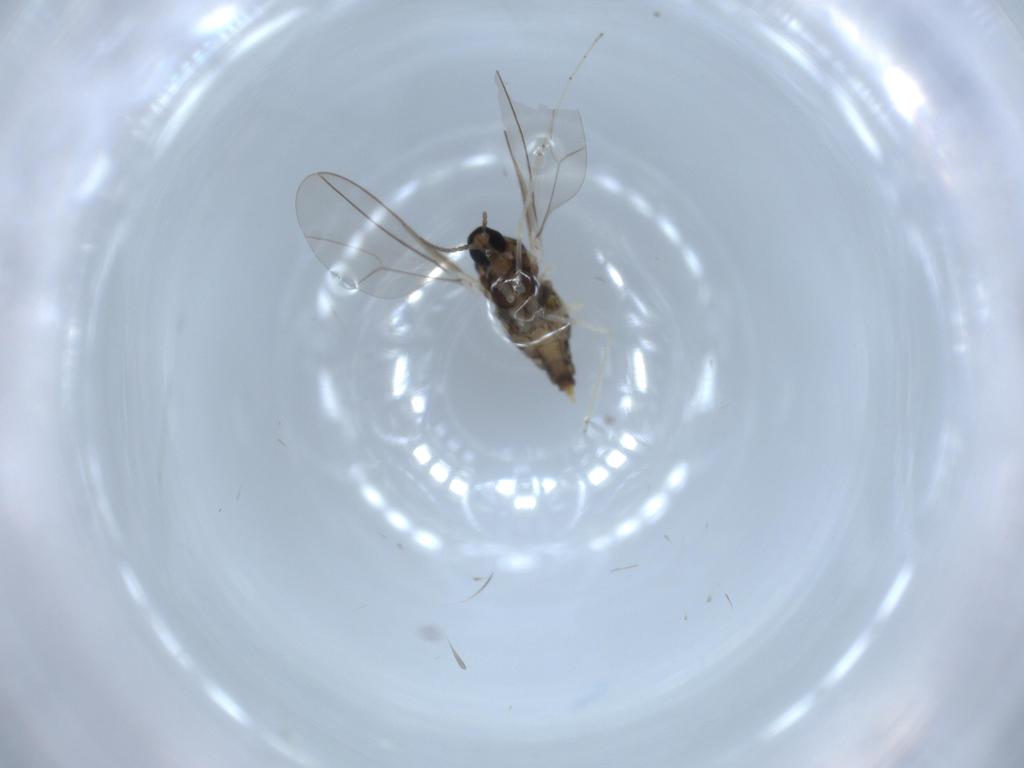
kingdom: Animalia
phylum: Arthropoda
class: Insecta
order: Diptera
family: Cecidomyiidae
